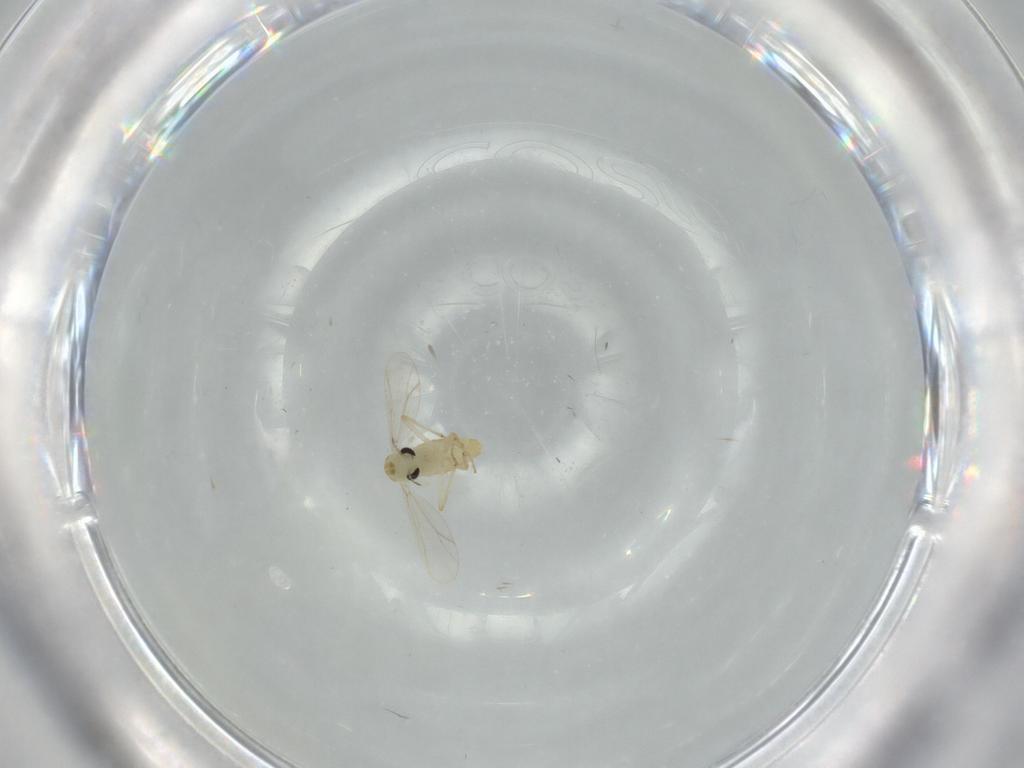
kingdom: Animalia
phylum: Arthropoda
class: Insecta
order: Diptera
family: Chironomidae
